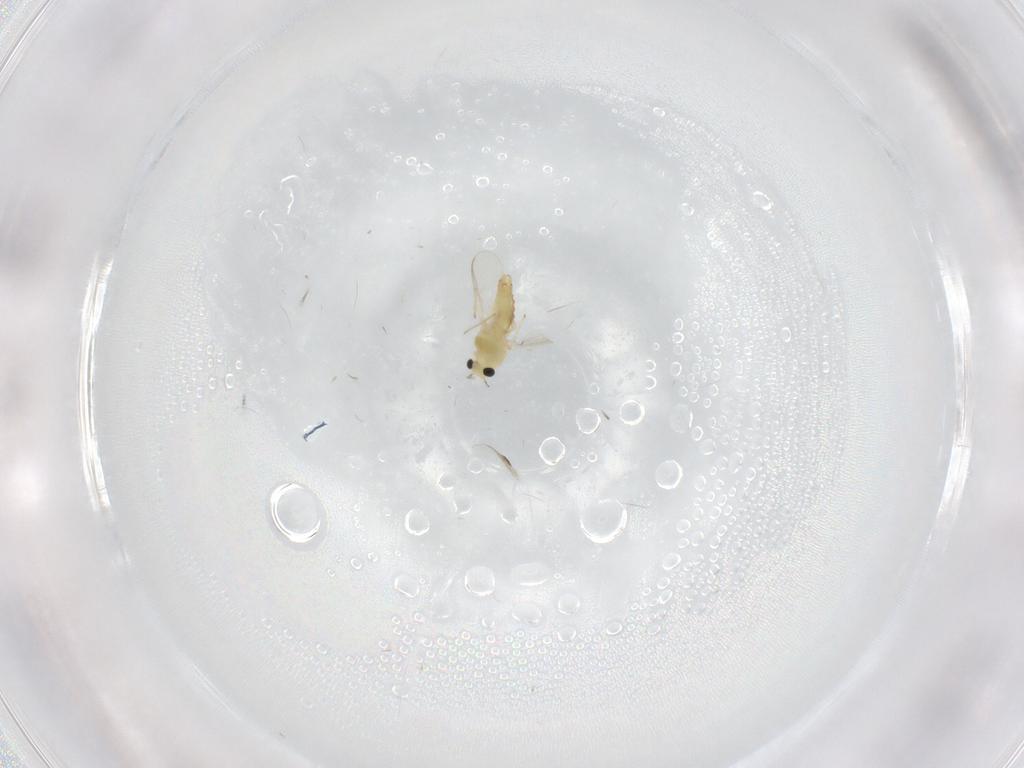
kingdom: Animalia
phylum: Arthropoda
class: Insecta
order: Diptera
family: Chironomidae
